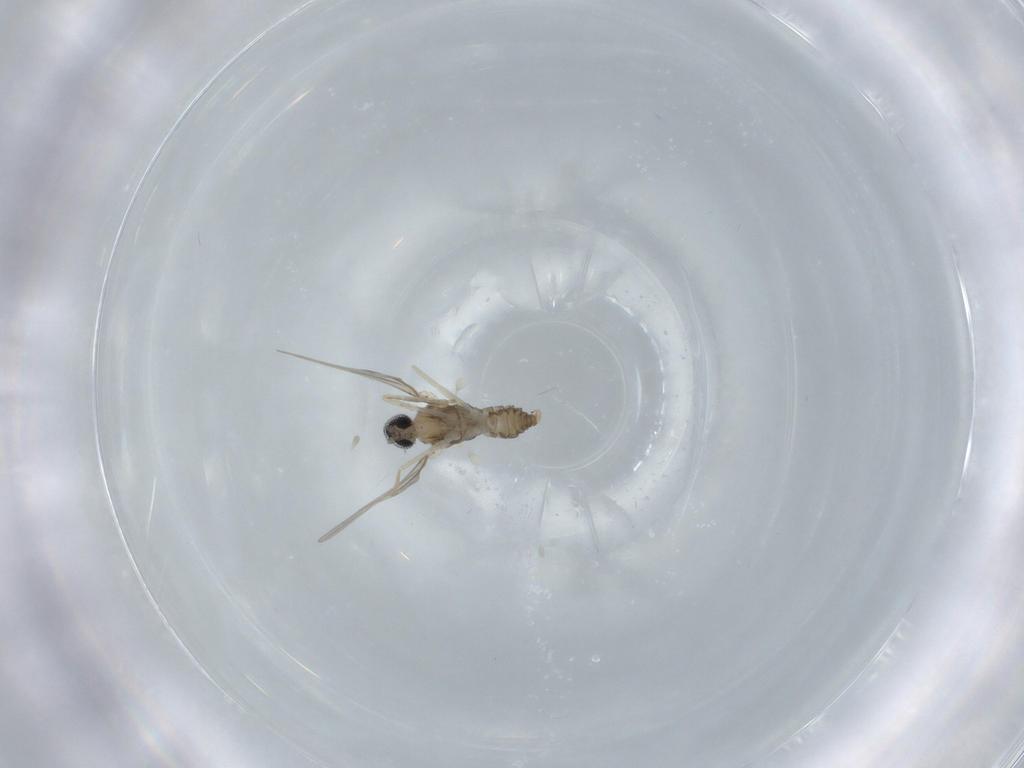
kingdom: Animalia
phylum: Arthropoda
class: Insecta
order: Diptera
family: Cecidomyiidae
